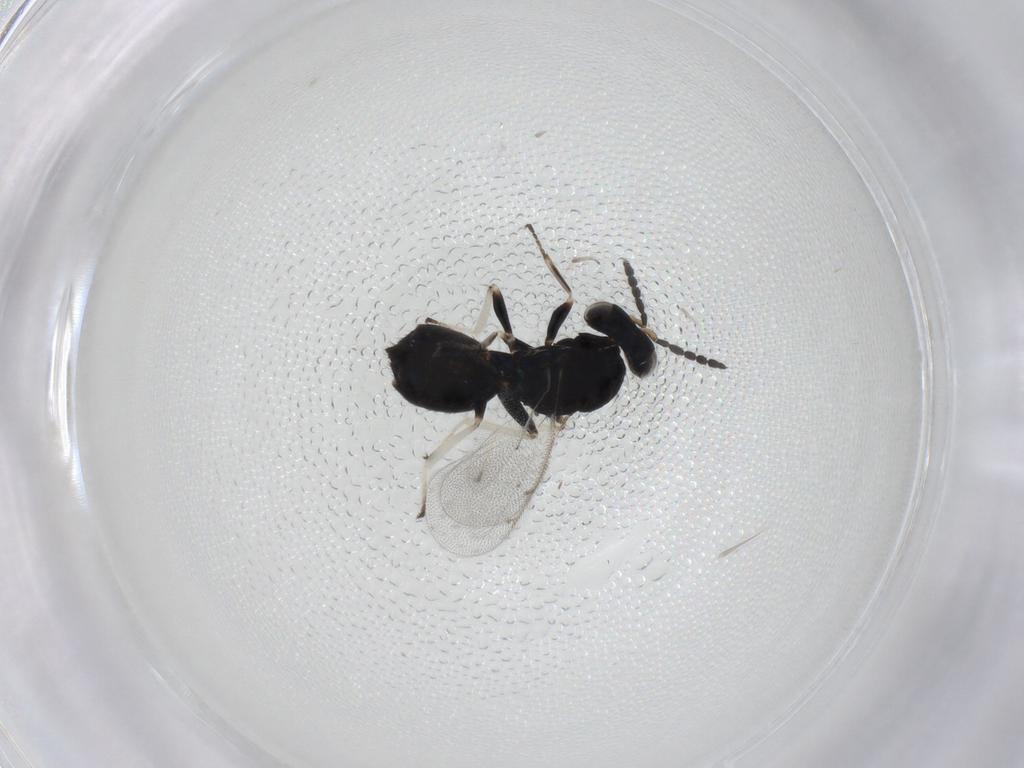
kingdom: Animalia
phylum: Arthropoda
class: Insecta
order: Hymenoptera
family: Eulophidae
